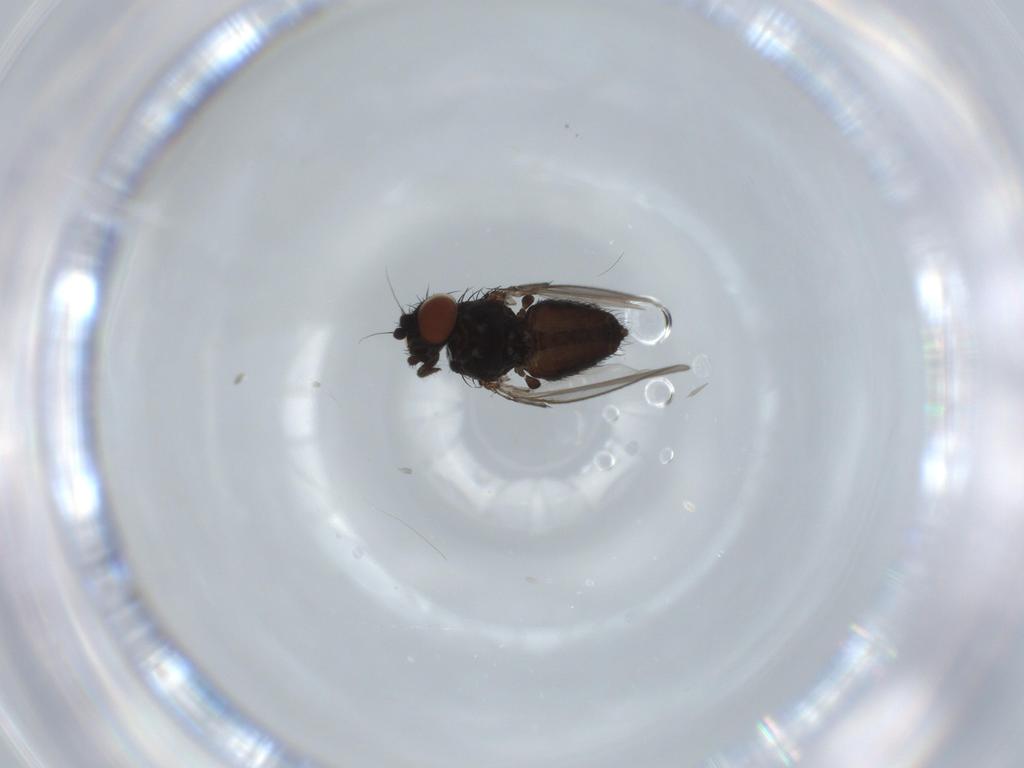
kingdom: Animalia
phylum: Arthropoda
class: Insecta
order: Diptera
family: Milichiidae
